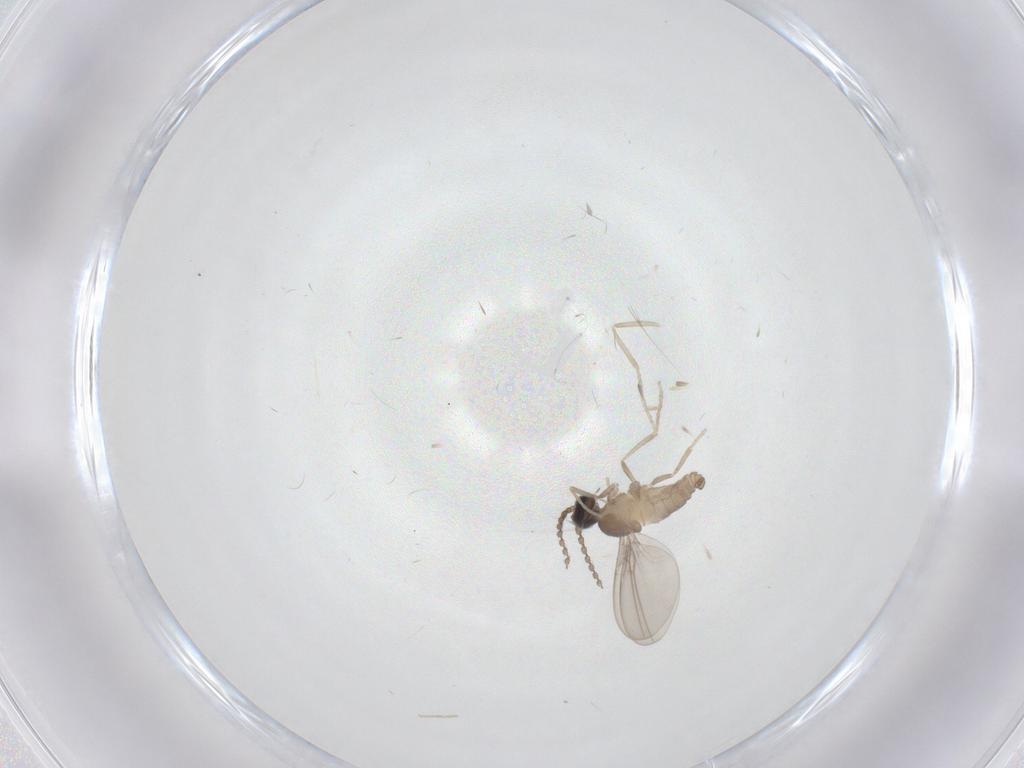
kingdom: Animalia
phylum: Arthropoda
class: Insecta
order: Diptera
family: Cecidomyiidae
